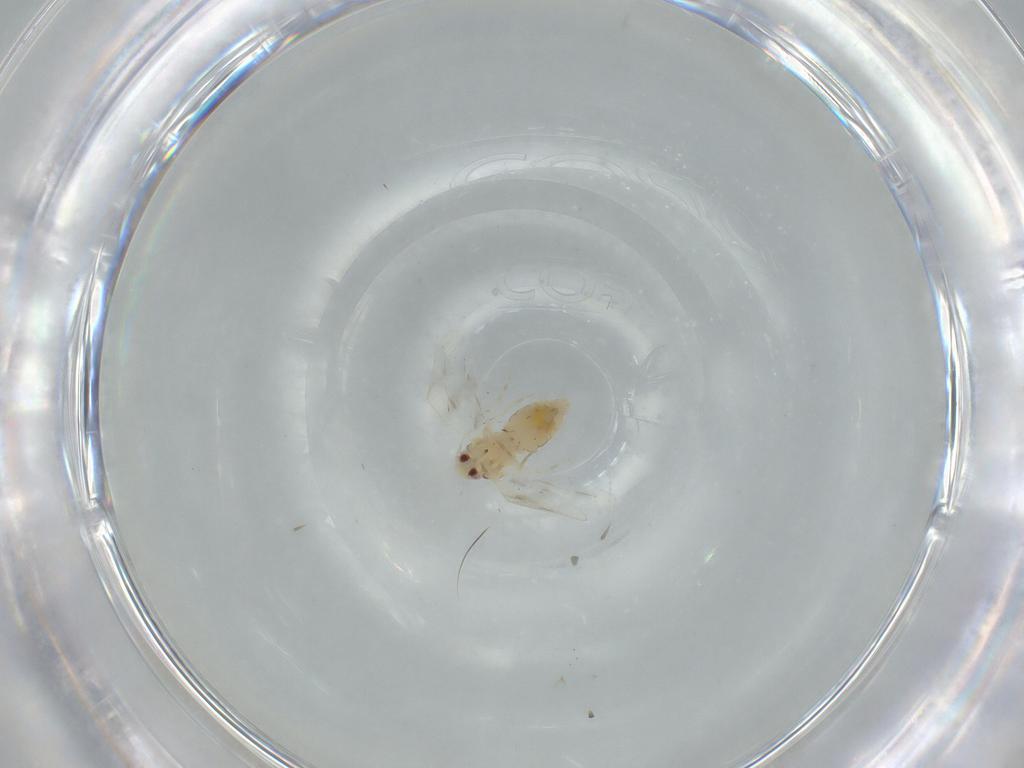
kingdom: Animalia
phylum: Arthropoda
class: Insecta
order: Hemiptera
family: Aleyrodidae
